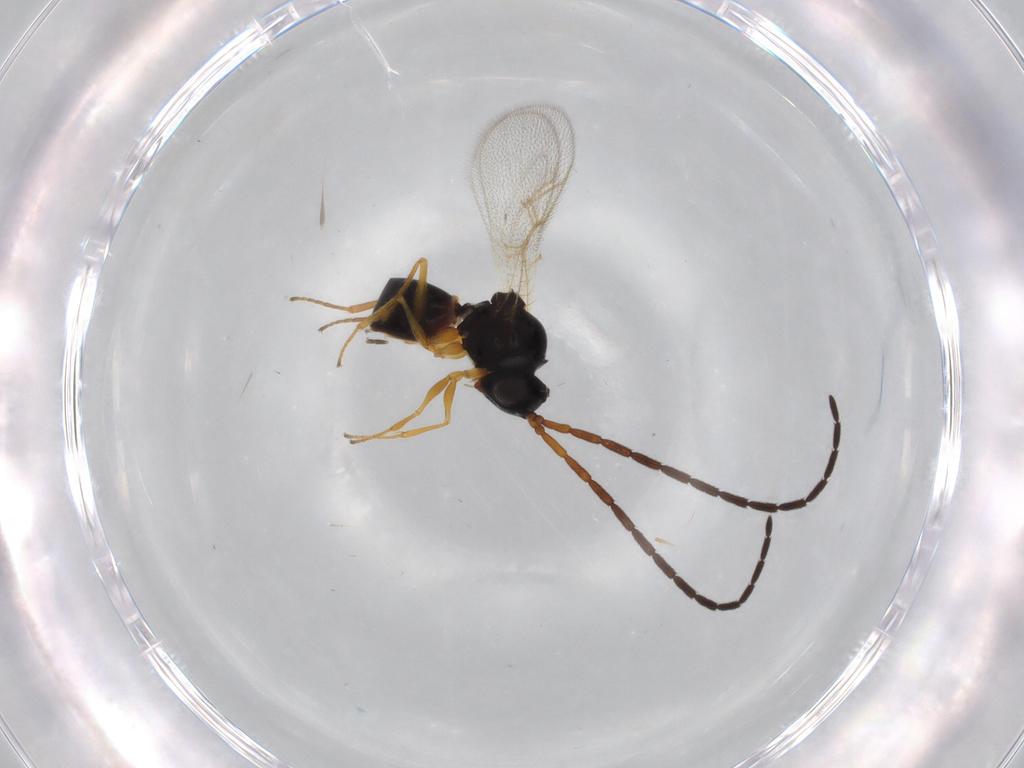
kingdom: Animalia
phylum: Arthropoda
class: Insecta
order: Hymenoptera
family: Figitidae
